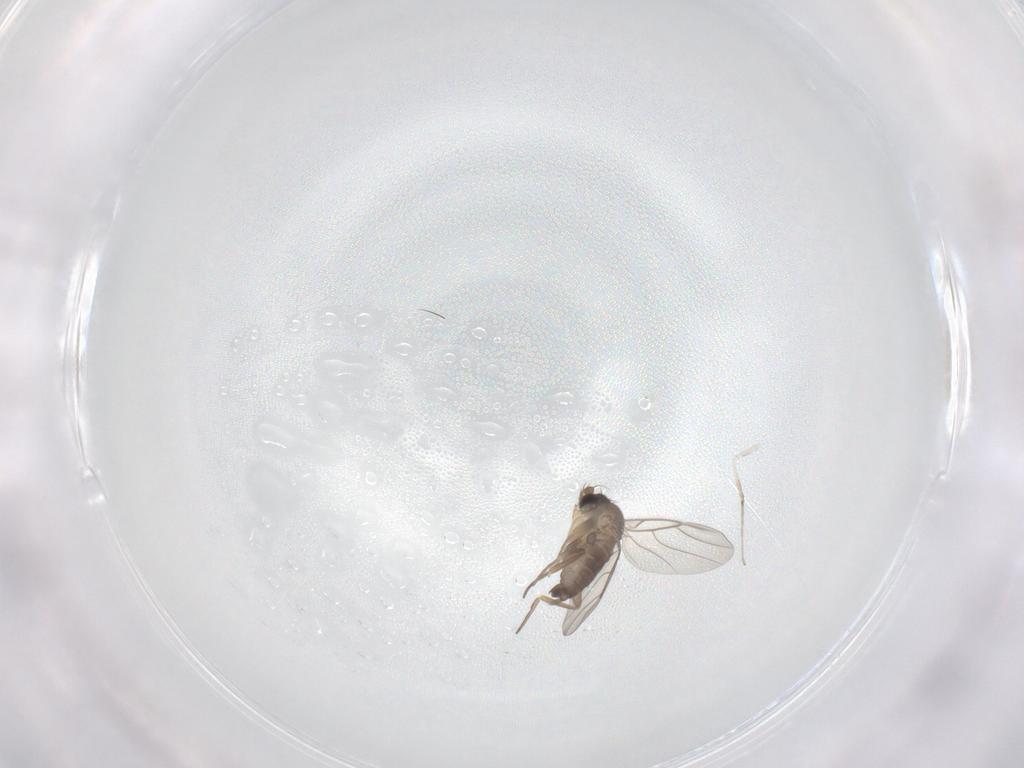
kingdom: Animalia
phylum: Arthropoda
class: Insecta
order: Diptera
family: Phoridae
